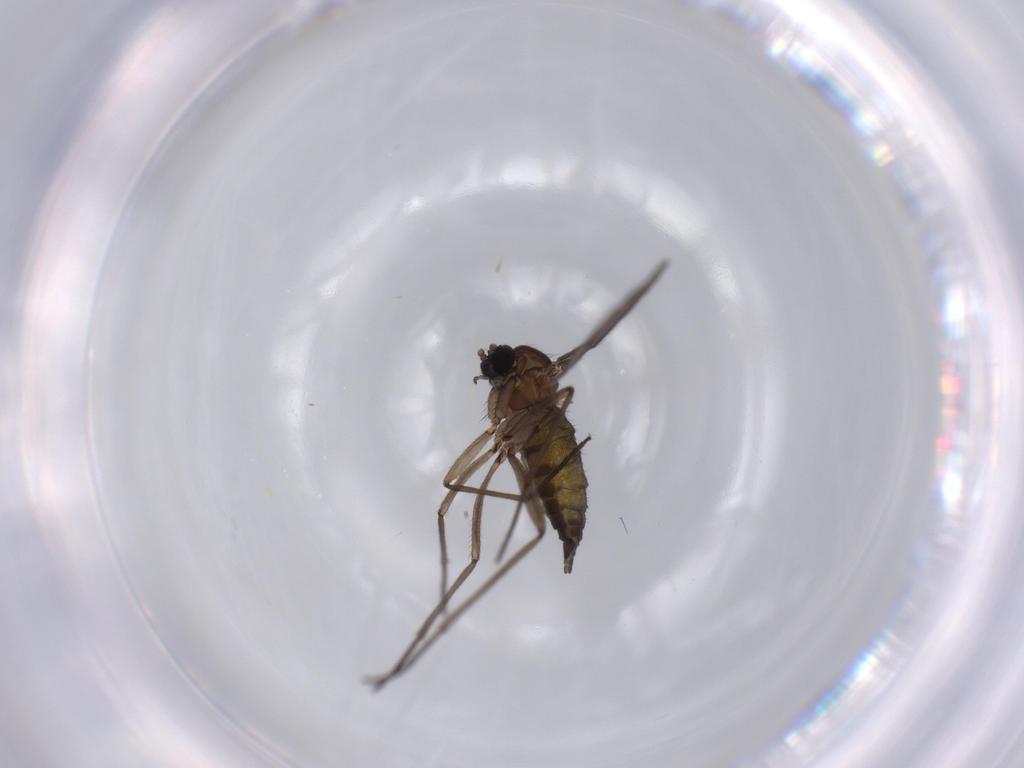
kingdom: Animalia
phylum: Arthropoda
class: Insecta
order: Diptera
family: Sciaridae
